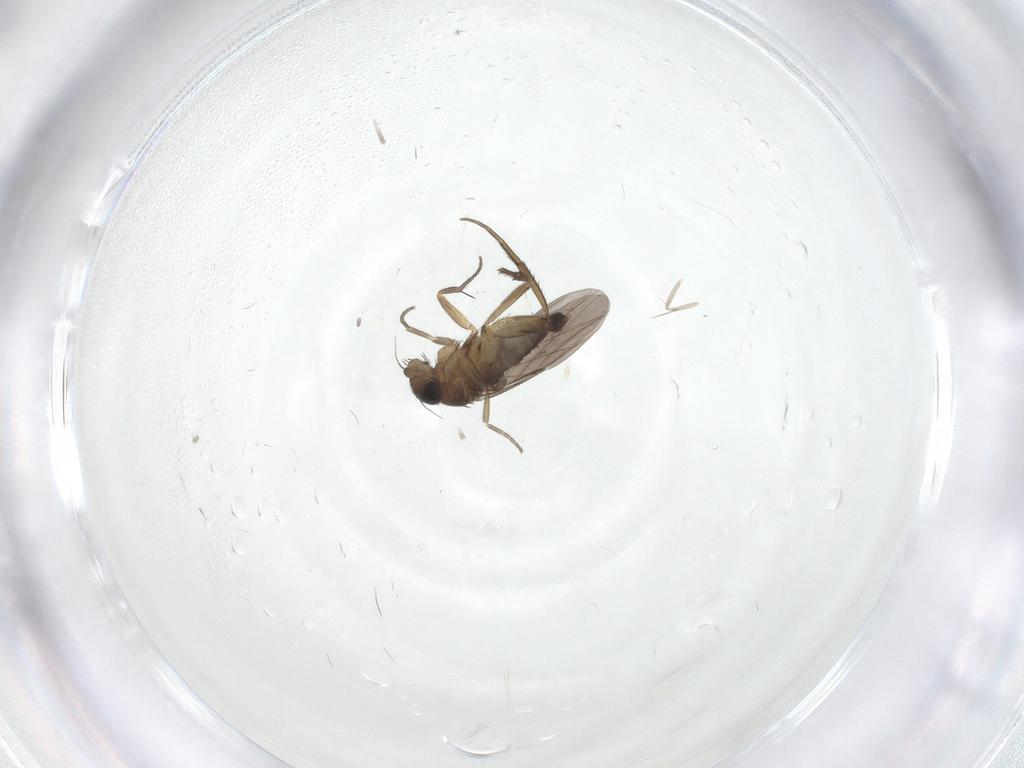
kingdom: Animalia
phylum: Arthropoda
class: Insecta
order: Diptera
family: Phoridae
